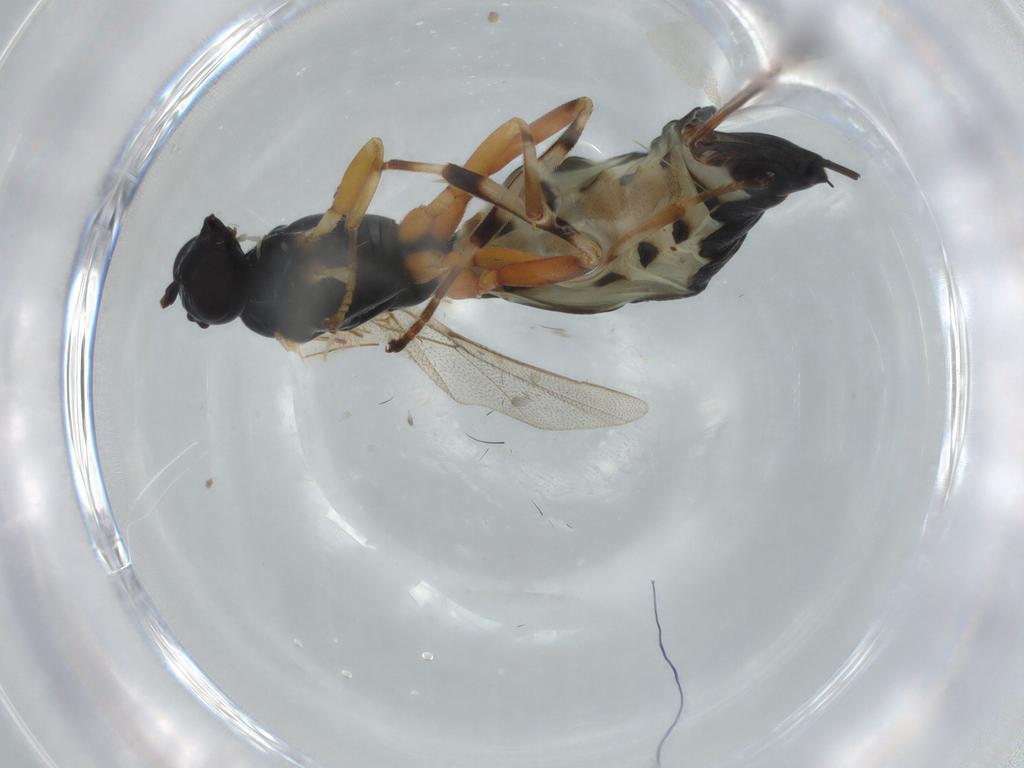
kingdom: Animalia
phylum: Arthropoda
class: Insecta
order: Hymenoptera
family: Ichneumonidae
